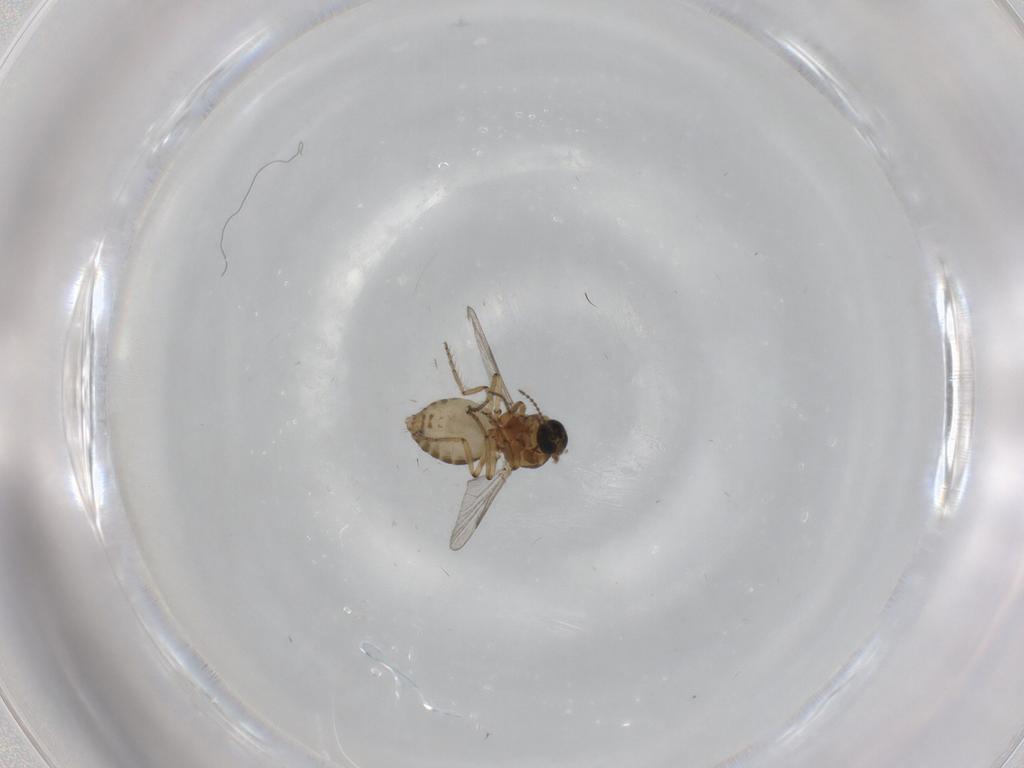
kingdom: Animalia
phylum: Arthropoda
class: Insecta
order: Diptera
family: Ceratopogonidae
